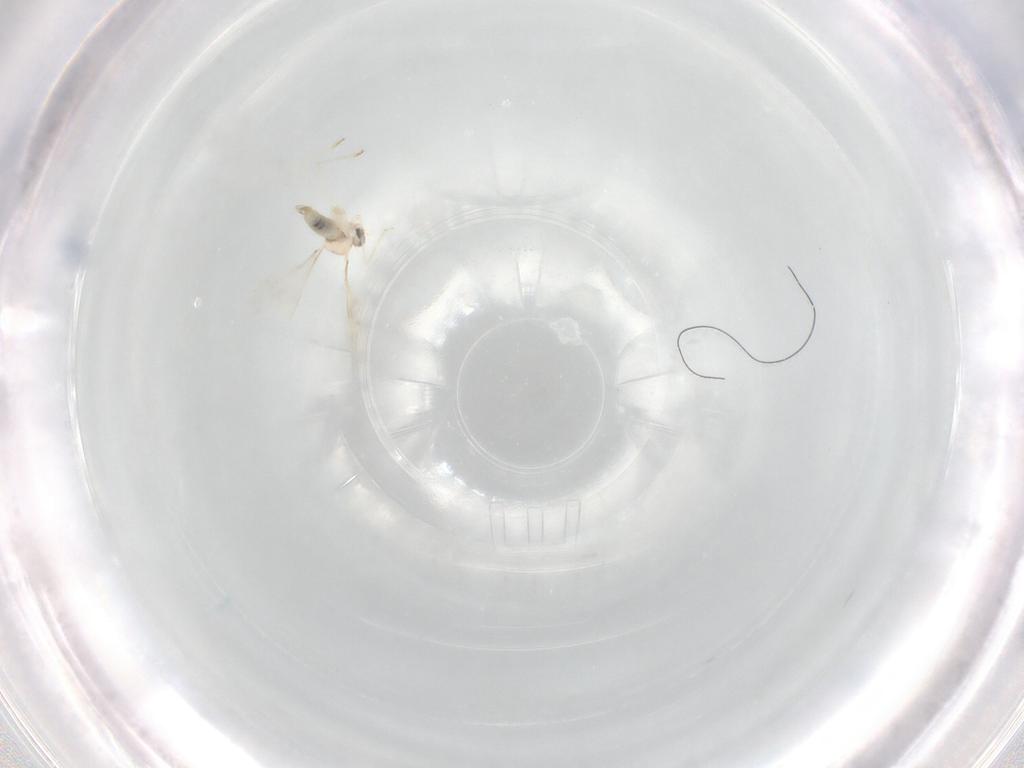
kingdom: Animalia
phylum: Arthropoda
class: Insecta
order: Diptera
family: Cecidomyiidae
